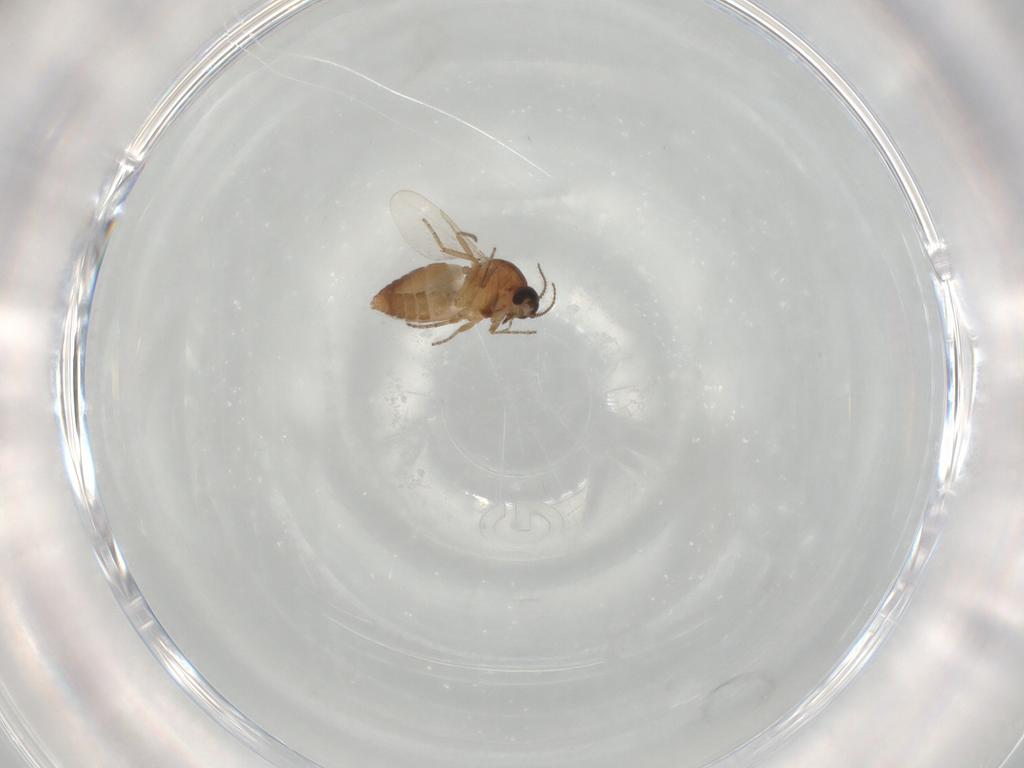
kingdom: Animalia
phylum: Arthropoda
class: Insecta
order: Diptera
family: Ceratopogonidae
